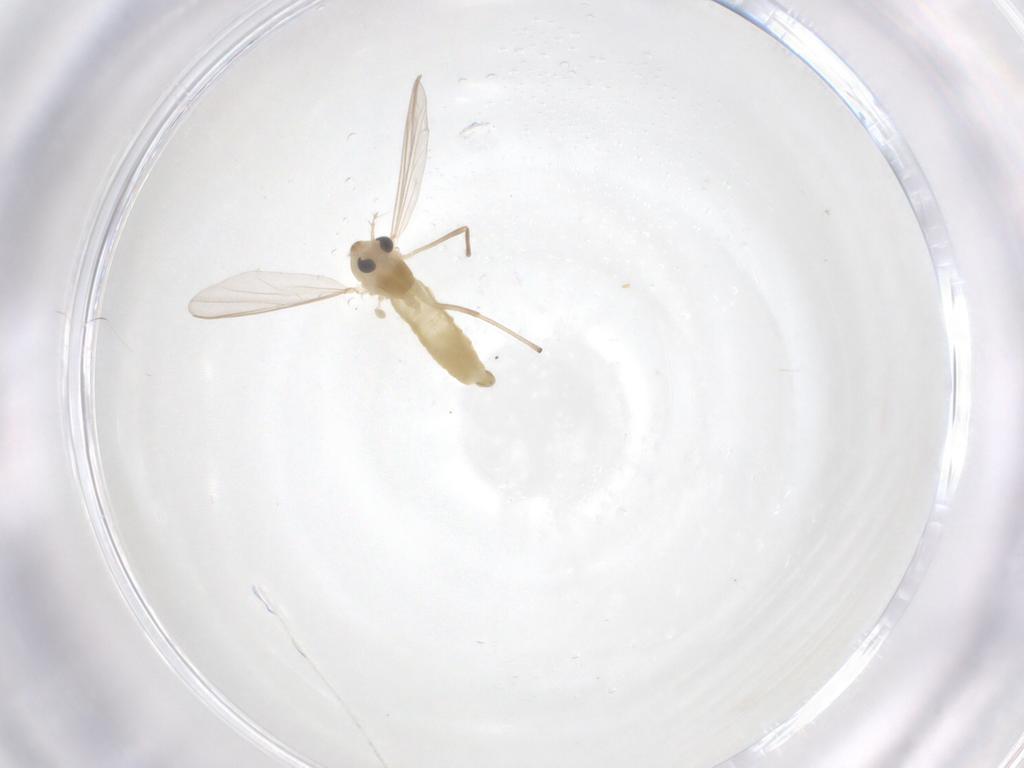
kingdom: Animalia
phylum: Arthropoda
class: Insecta
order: Diptera
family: Chironomidae
